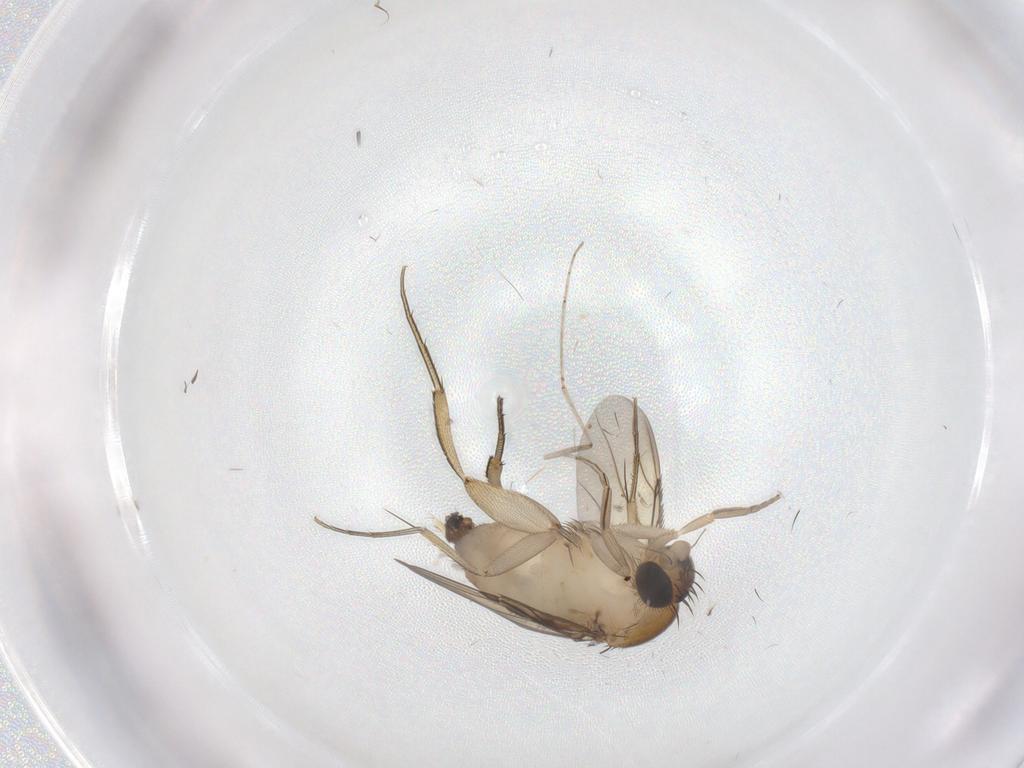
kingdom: Animalia
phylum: Arthropoda
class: Insecta
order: Diptera
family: Phoridae
